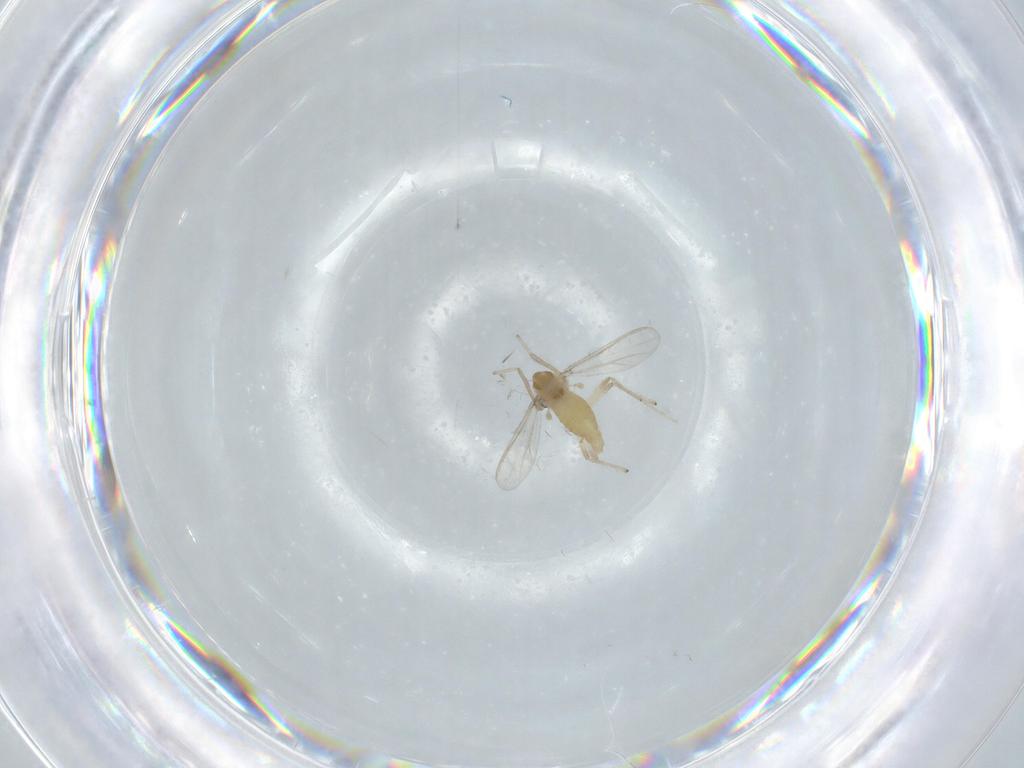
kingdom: Animalia
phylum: Arthropoda
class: Insecta
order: Diptera
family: Chironomidae
